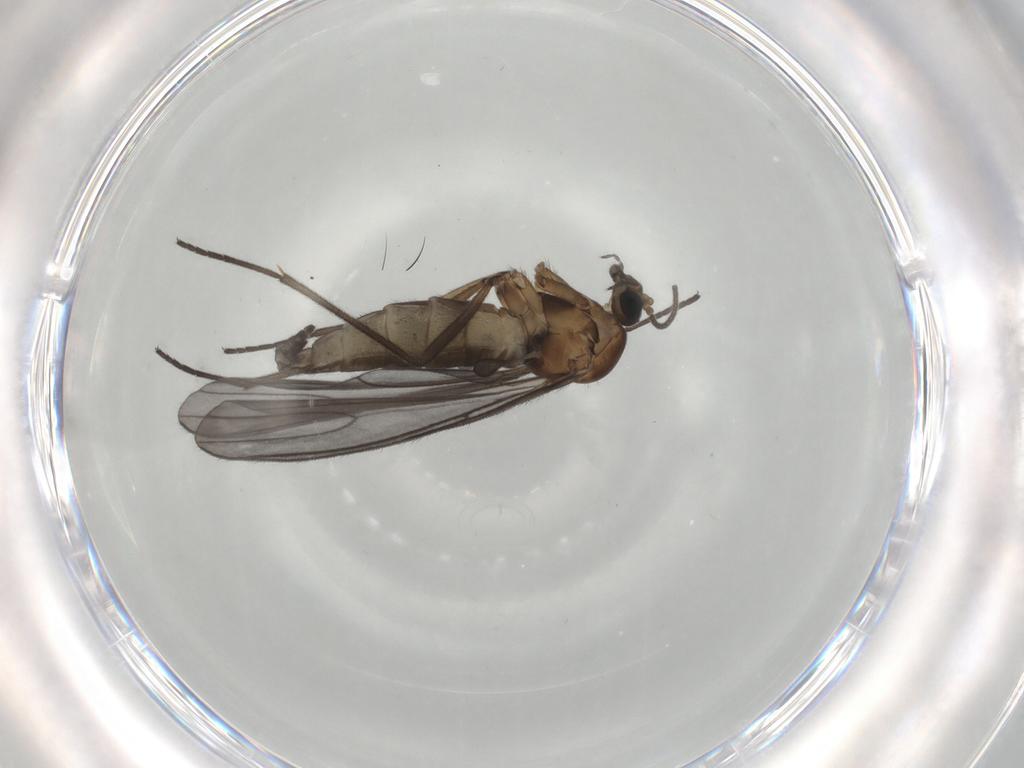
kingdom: Animalia
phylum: Arthropoda
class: Insecta
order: Diptera
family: Sciaridae
